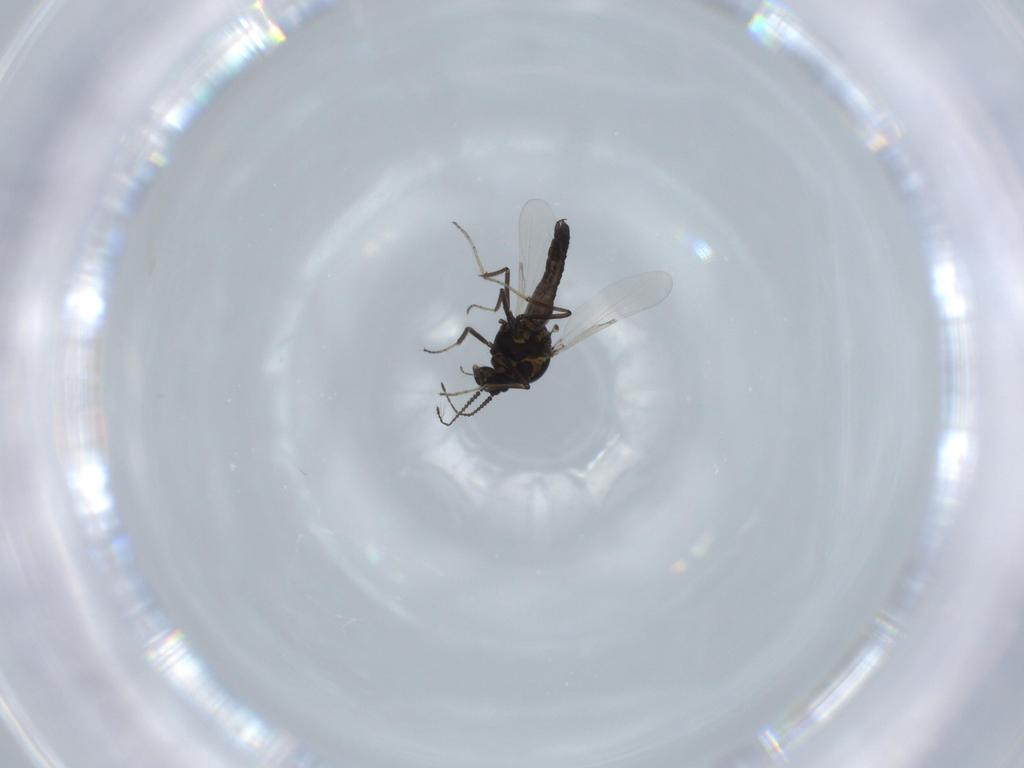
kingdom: Animalia
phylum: Arthropoda
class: Insecta
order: Diptera
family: Chironomidae
